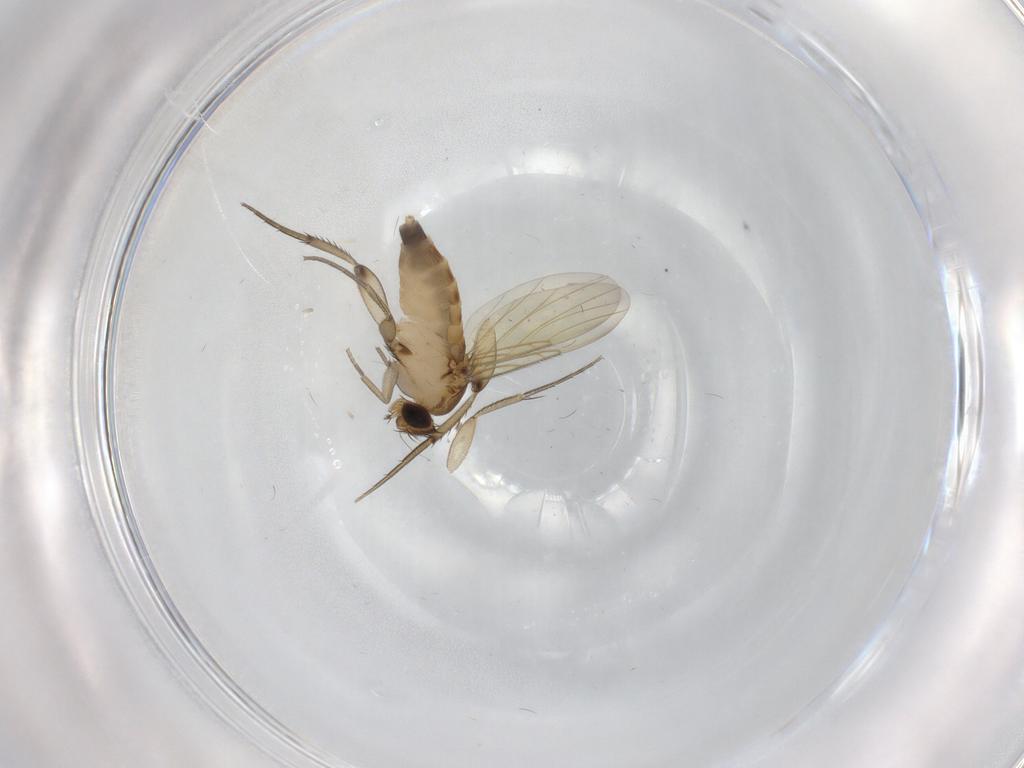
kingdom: Animalia
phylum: Arthropoda
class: Insecta
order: Diptera
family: Phoridae
